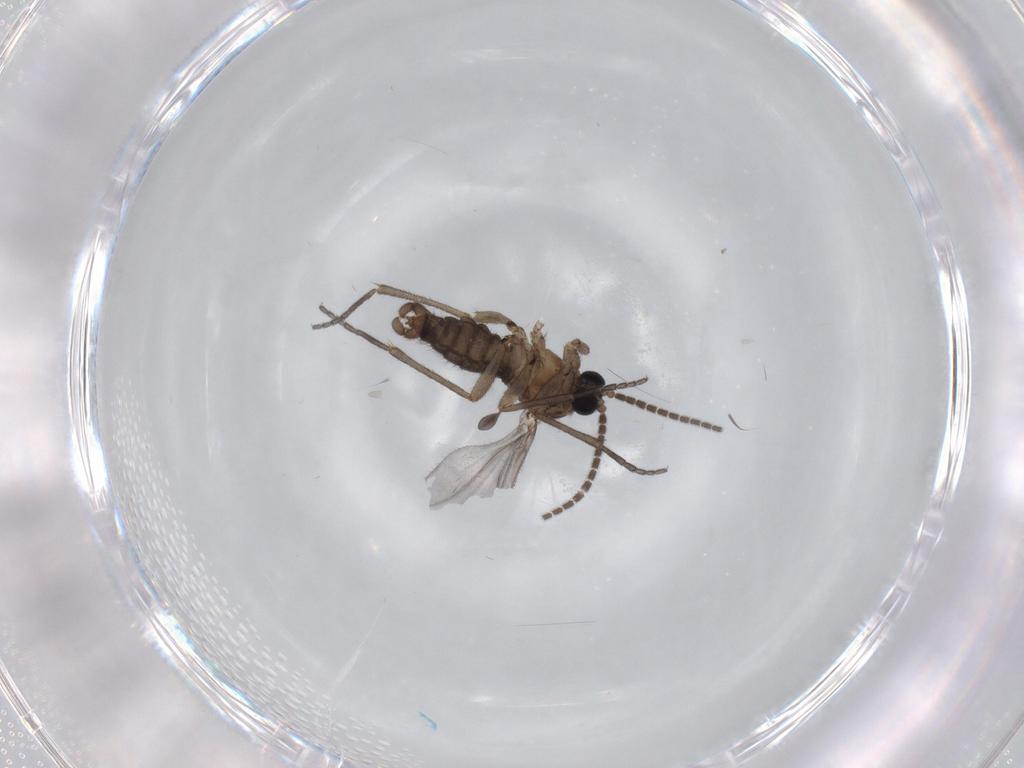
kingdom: Animalia
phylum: Arthropoda
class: Insecta
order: Diptera
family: Sciaridae
